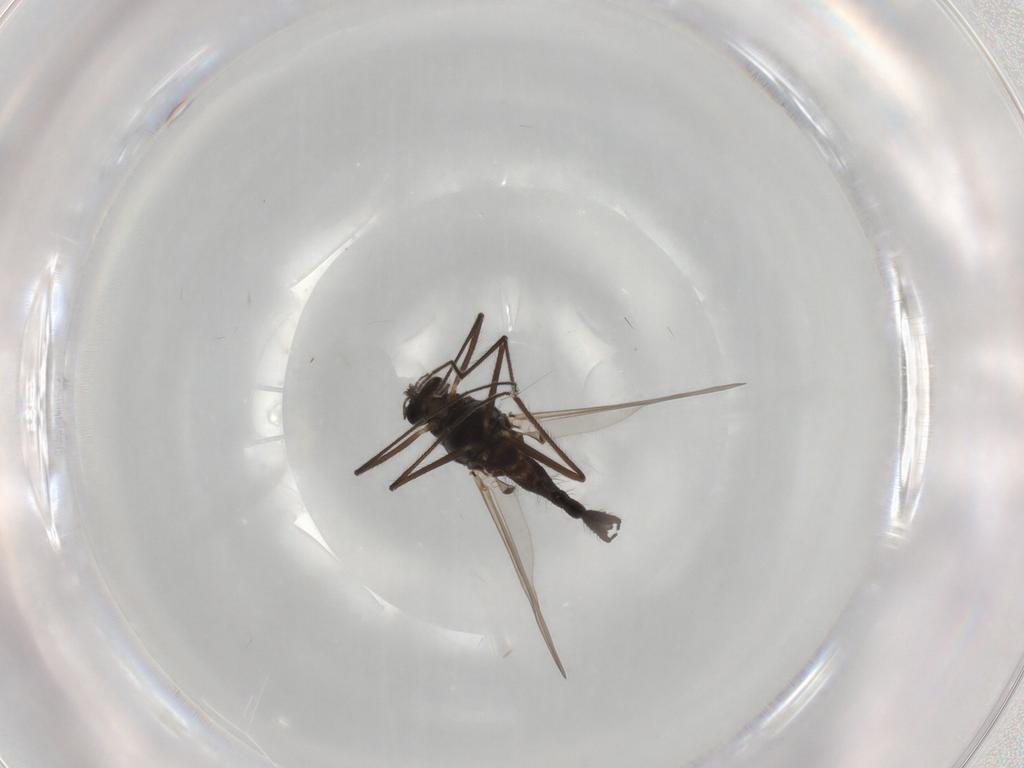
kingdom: Animalia
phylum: Arthropoda
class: Insecta
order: Diptera
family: Chironomidae
